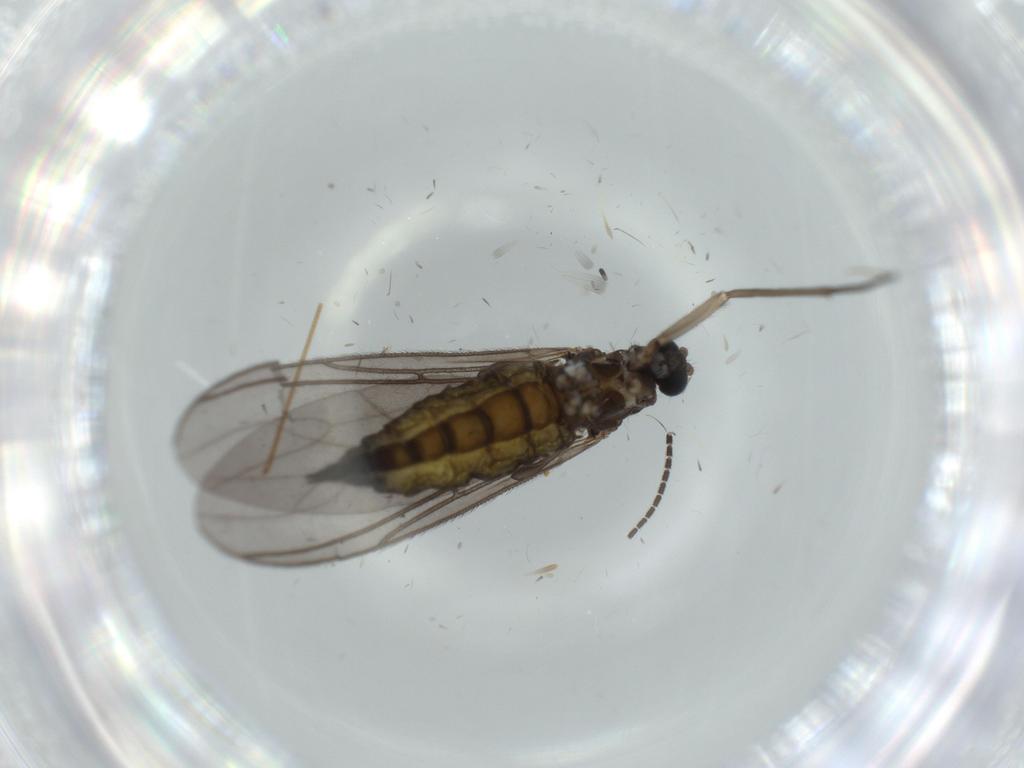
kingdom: Animalia
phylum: Arthropoda
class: Insecta
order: Diptera
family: Sciaridae
